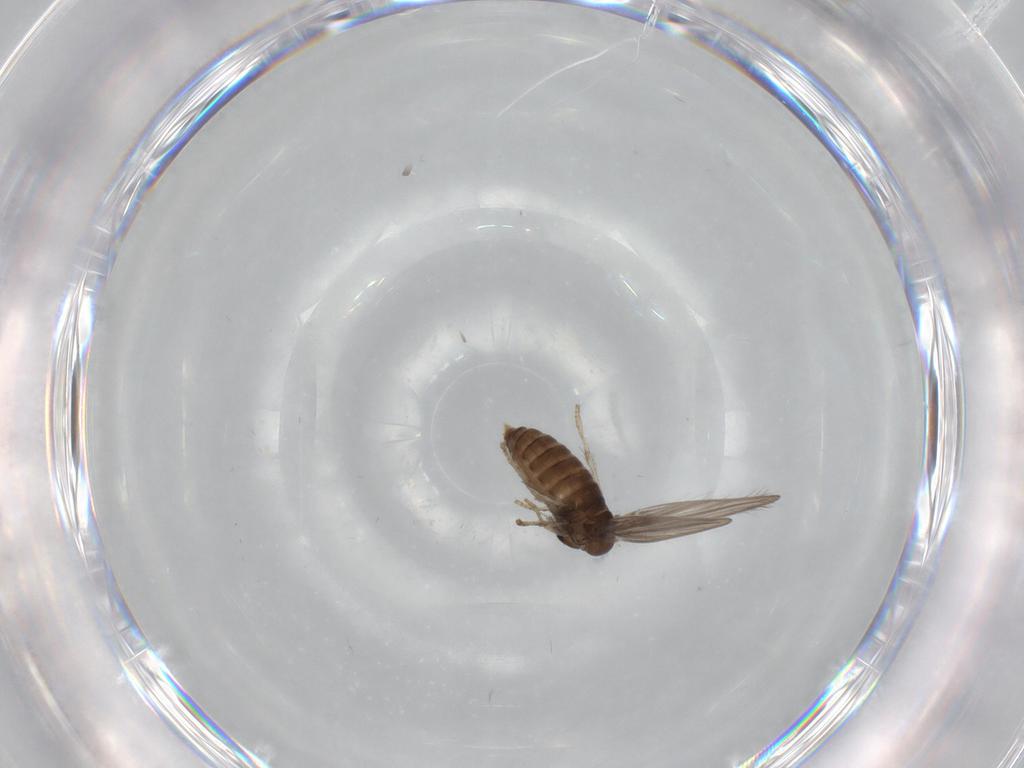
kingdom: Animalia
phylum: Arthropoda
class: Insecta
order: Diptera
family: Psychodidae
